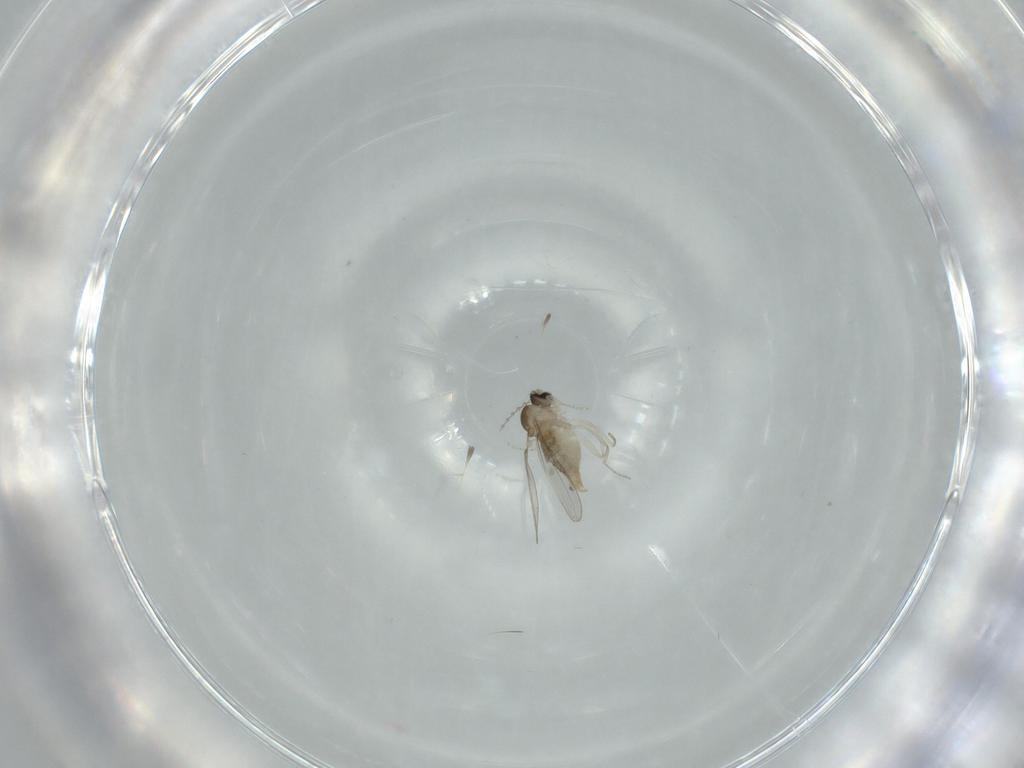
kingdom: Animalia
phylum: Arthropoda
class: Insecta
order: Diptera
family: Cecidomyiidae
